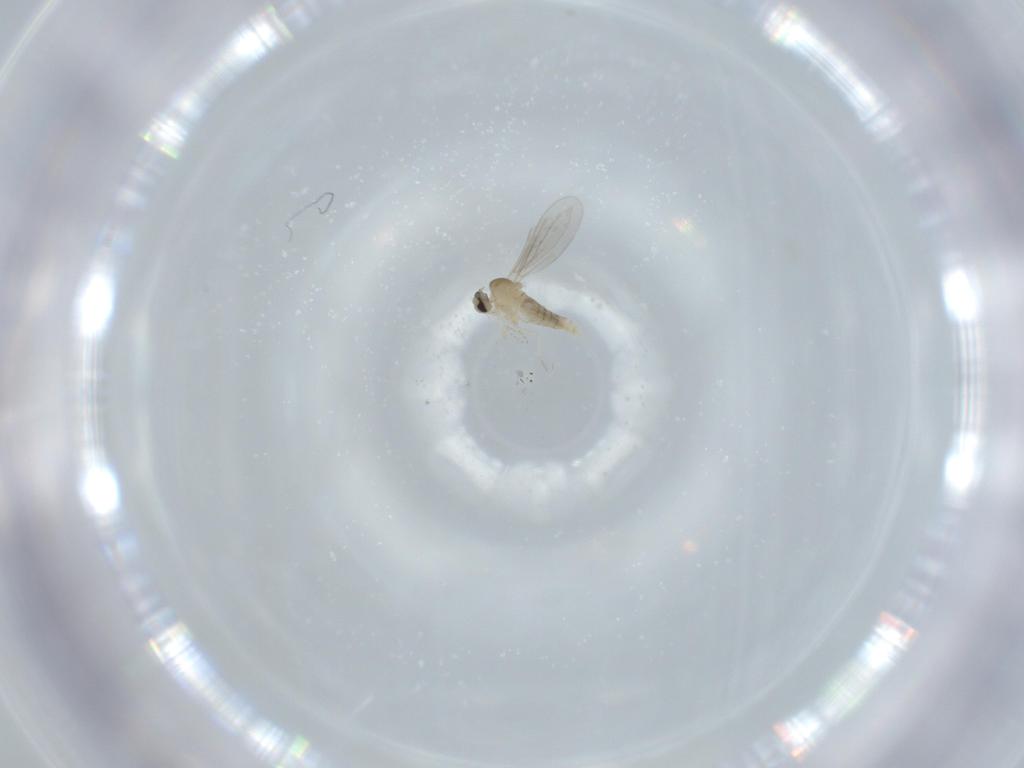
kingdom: Animalia
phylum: Arthropoda
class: Insecta
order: Diptera
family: Cecidomyiidae
